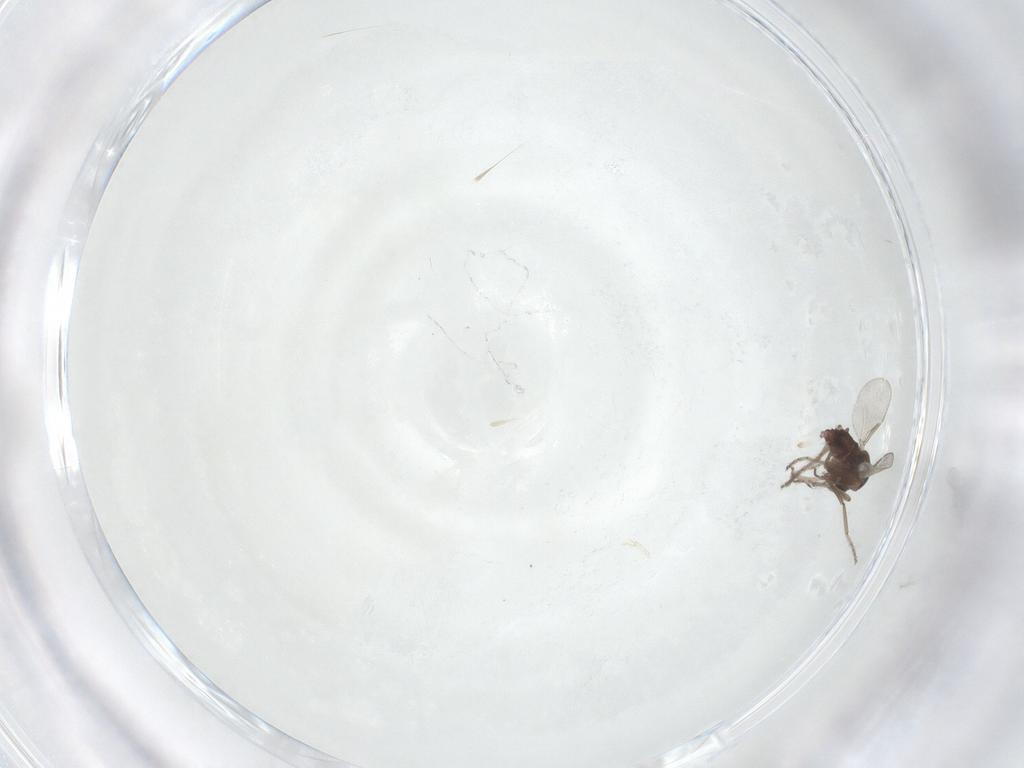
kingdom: Animalia
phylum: Arthropoda
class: Insecta
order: Diptera
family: Ceratopogonidae
